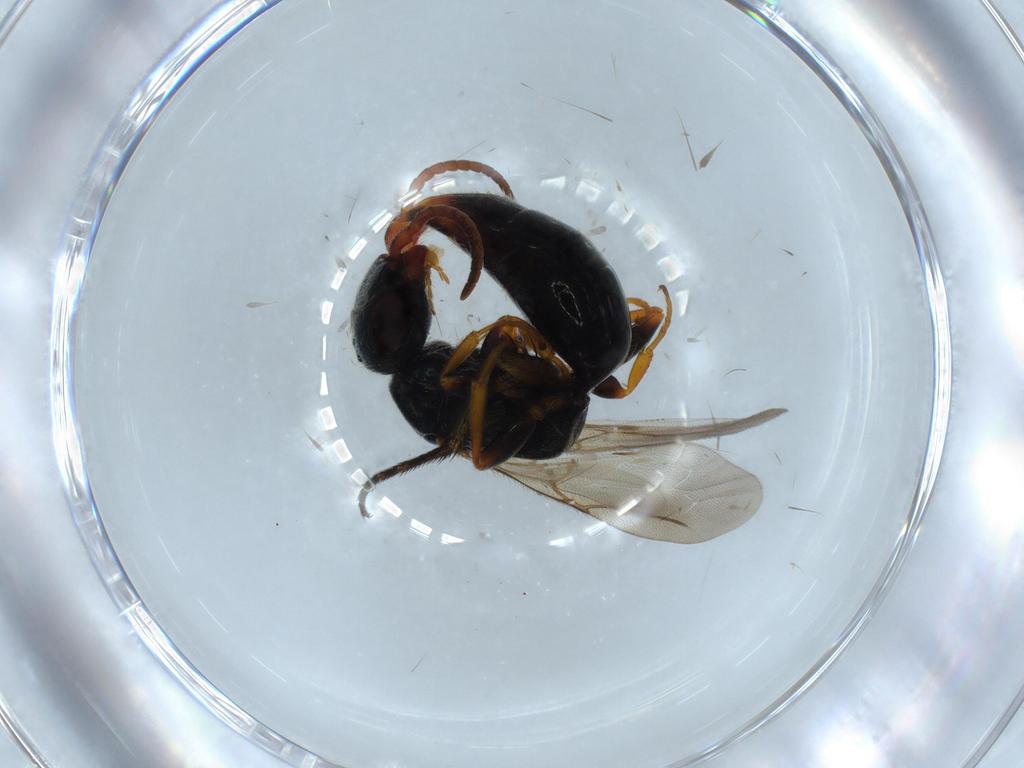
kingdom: Animalia
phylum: Arthropoda
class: Insecta
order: Hymenoptera
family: Bethylidae
